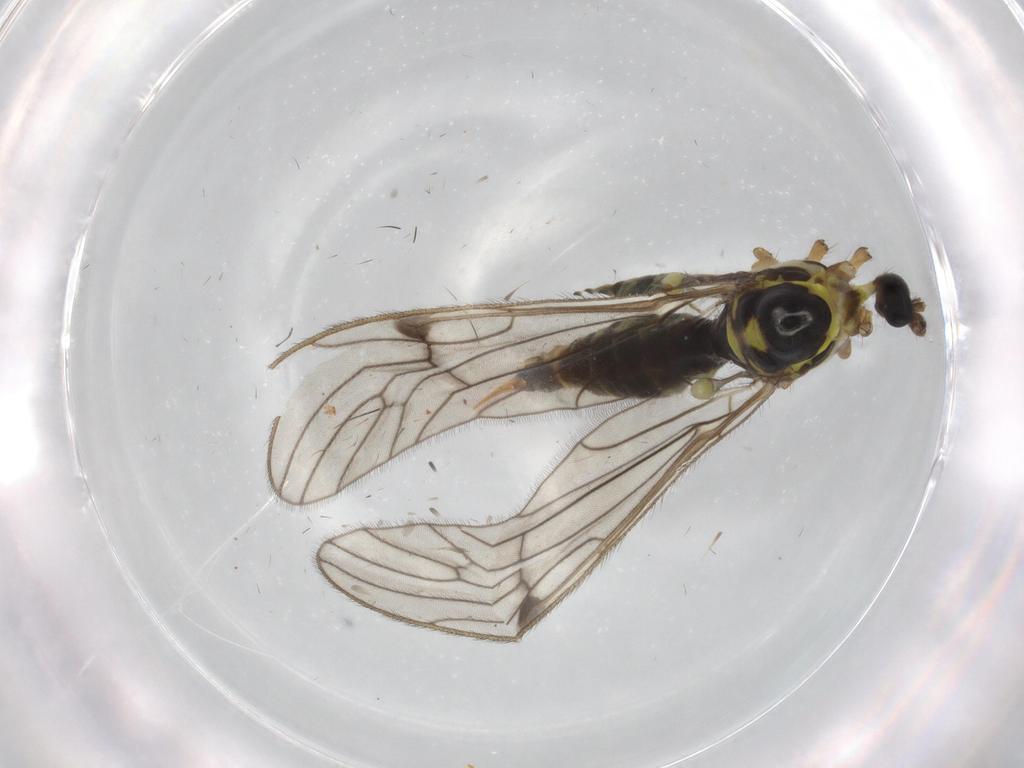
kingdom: Animalia
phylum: Arthropoda
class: Insecta
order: Diptera
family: Limoniidae
